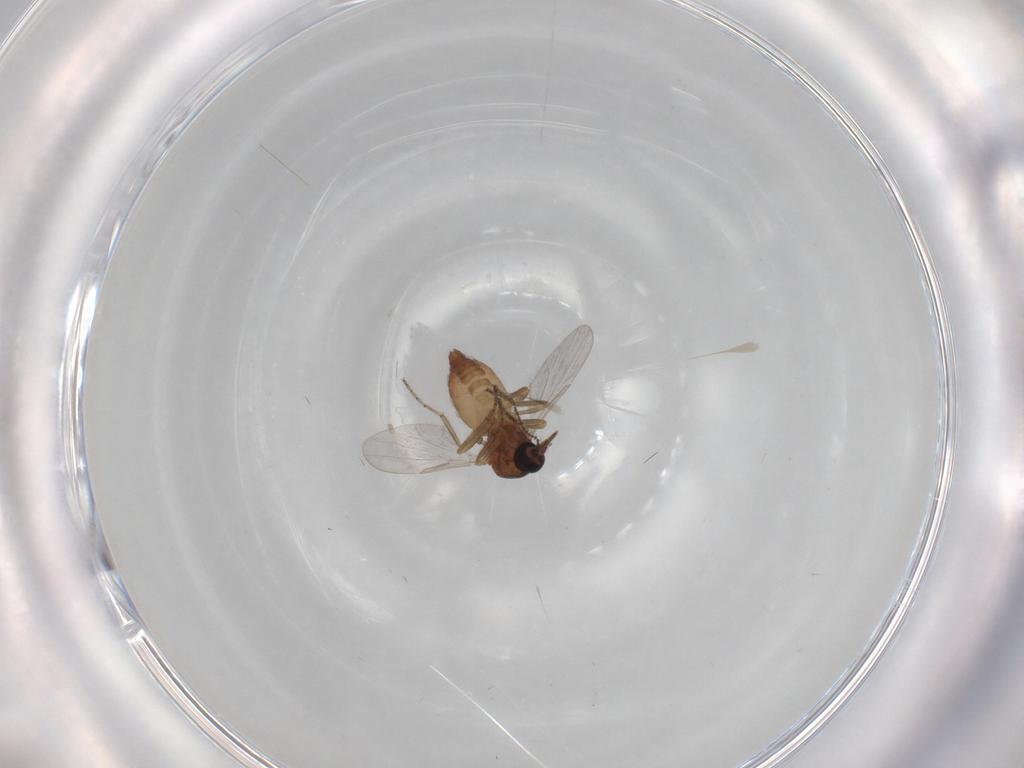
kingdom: Animalia
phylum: Arthropoda
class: Insecta
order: Diptera
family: Ceratopogonidae
